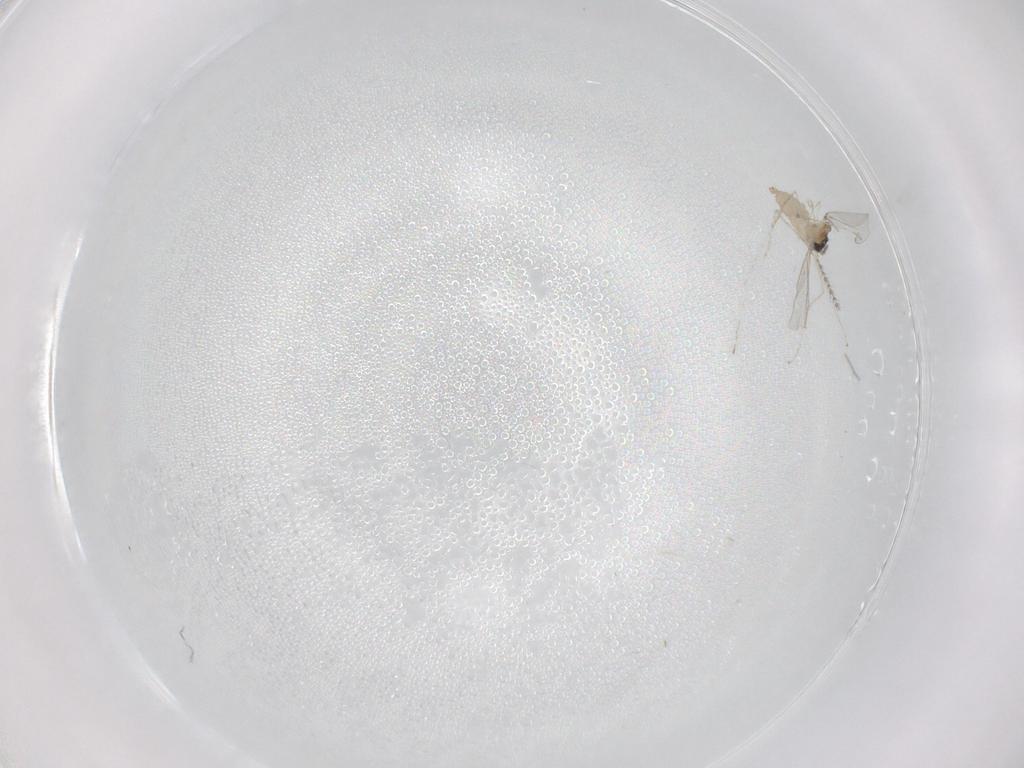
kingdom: Animalia
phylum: Arthropoda
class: Insecta
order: Diptera
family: Cecidomyiidae
